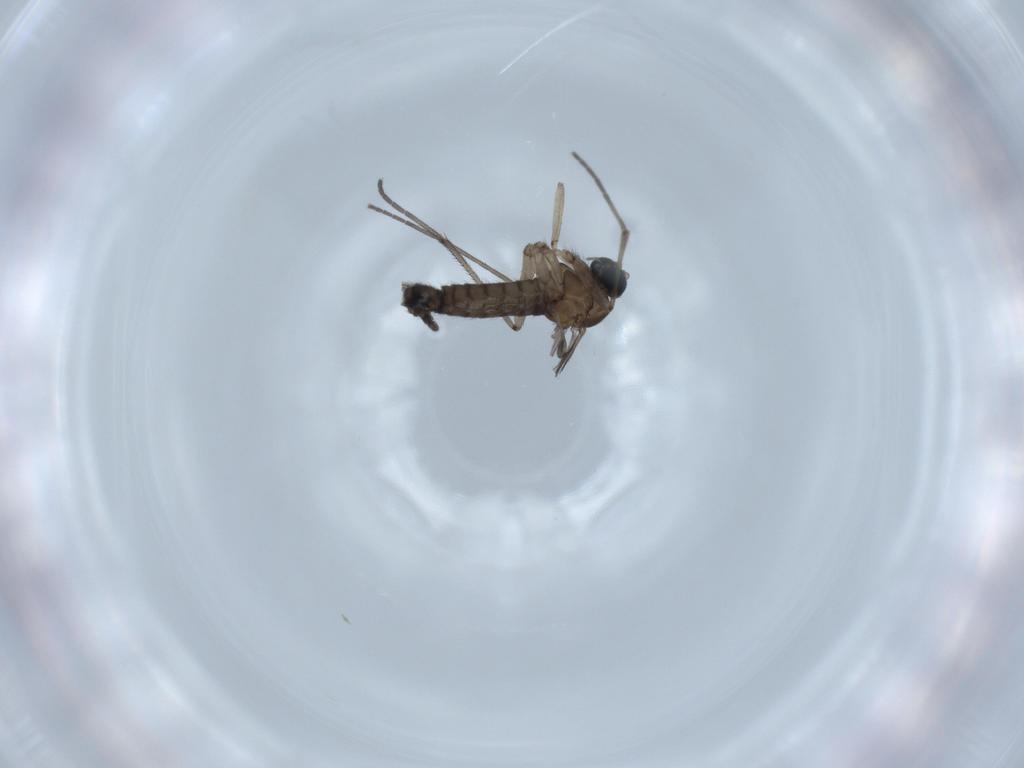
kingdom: Animalia
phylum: Arthropoda
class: Insecta
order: Diptera
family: Sciaridae
